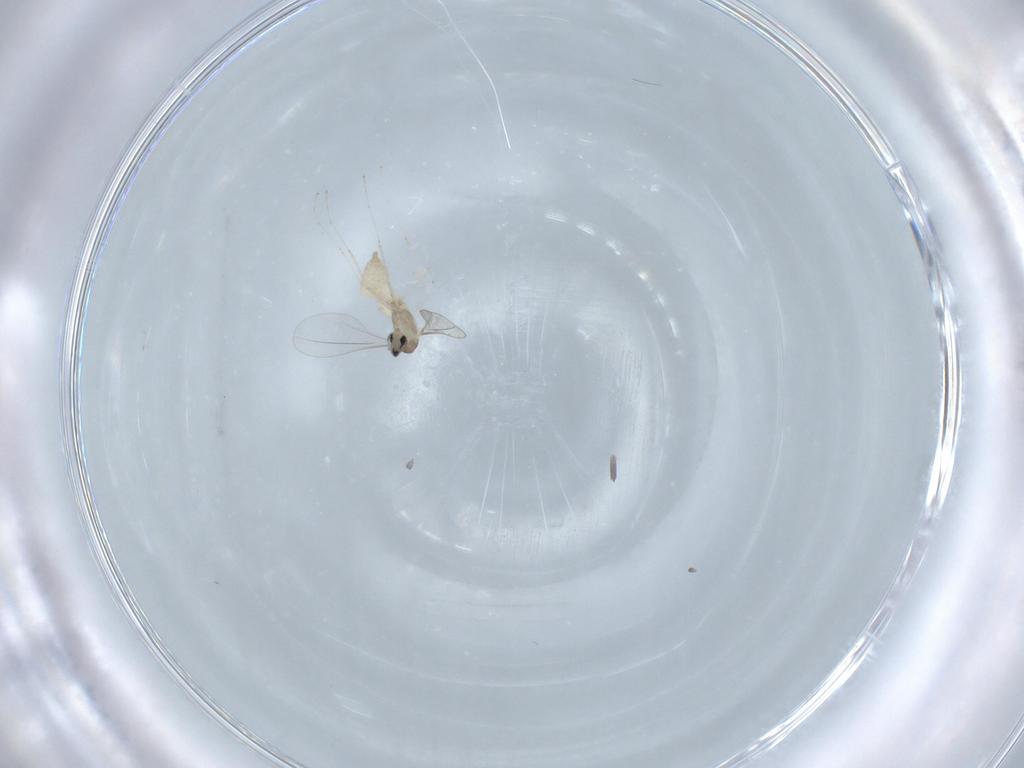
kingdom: Animalia
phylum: Arthropoda
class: Insecta
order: Diptera
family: Cecidomyiidae
